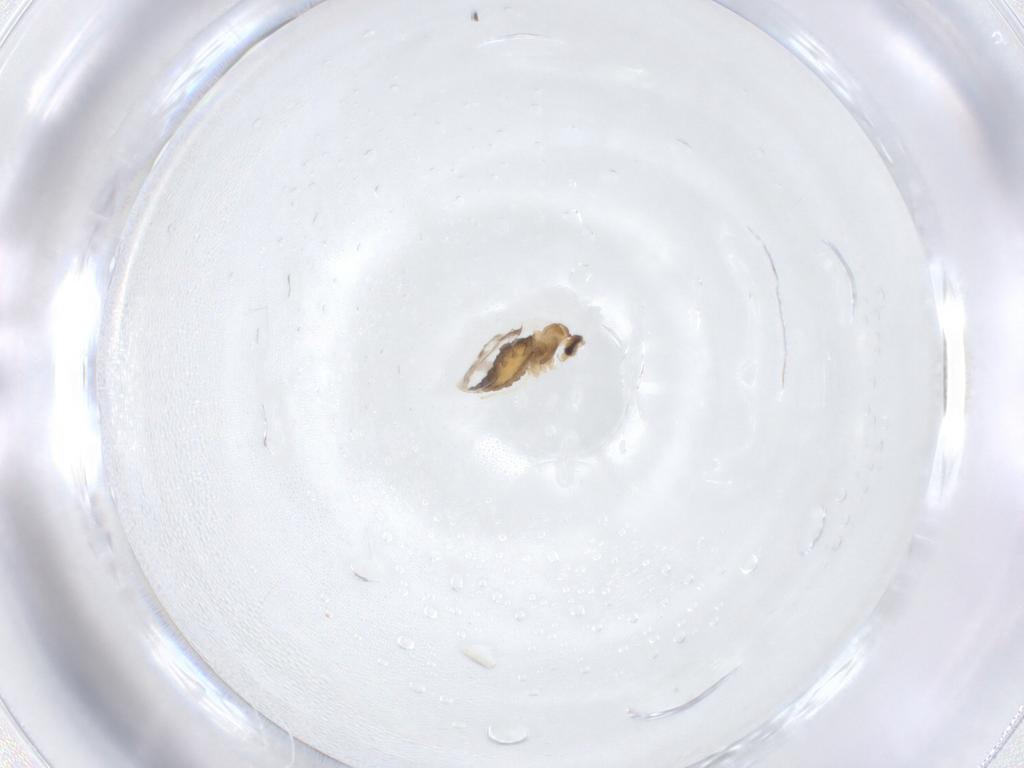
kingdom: Animalia
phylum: Arthropoda
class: Insecta
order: Diptera
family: Cecidomyiidae
